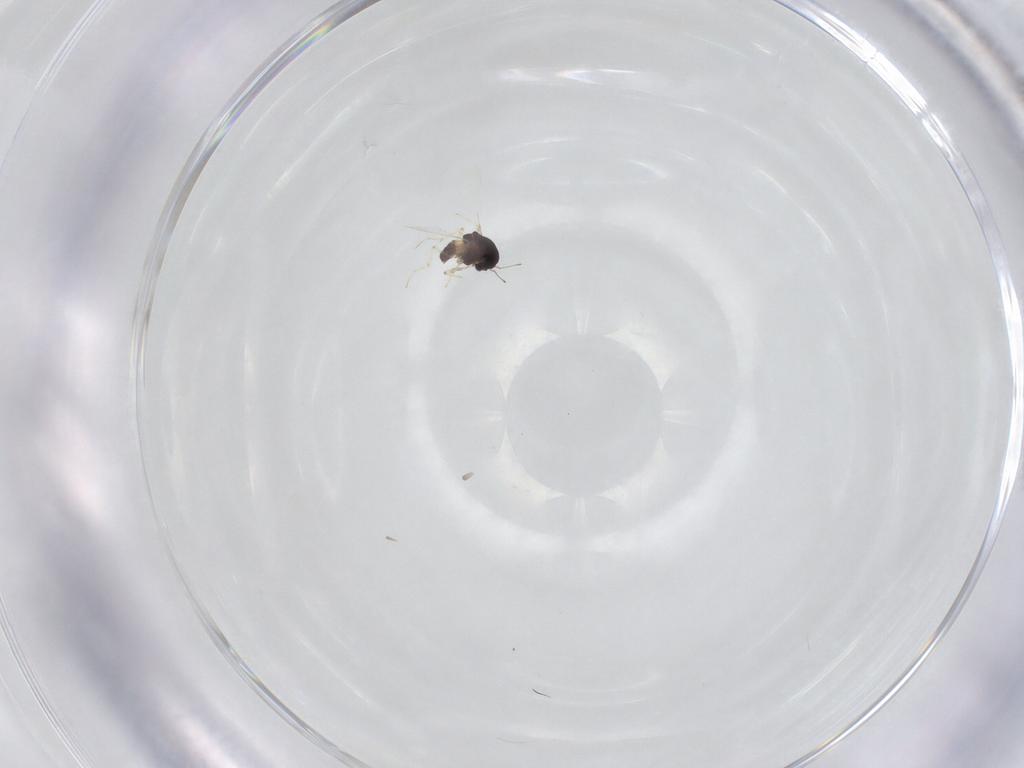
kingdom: Animalia
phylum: Arthropoda
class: Insecta
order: Diptera
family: Chironomidae
